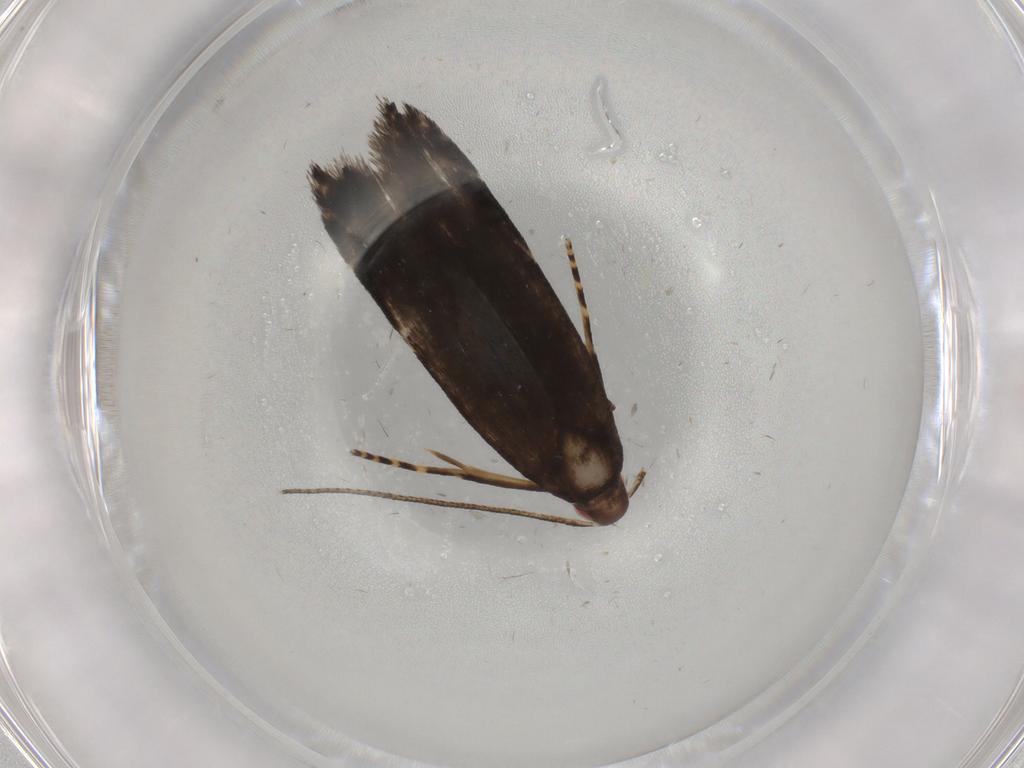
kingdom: Animalia
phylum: Arthropoda
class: Insecta
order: Lepidoptera
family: Gelechiidae
